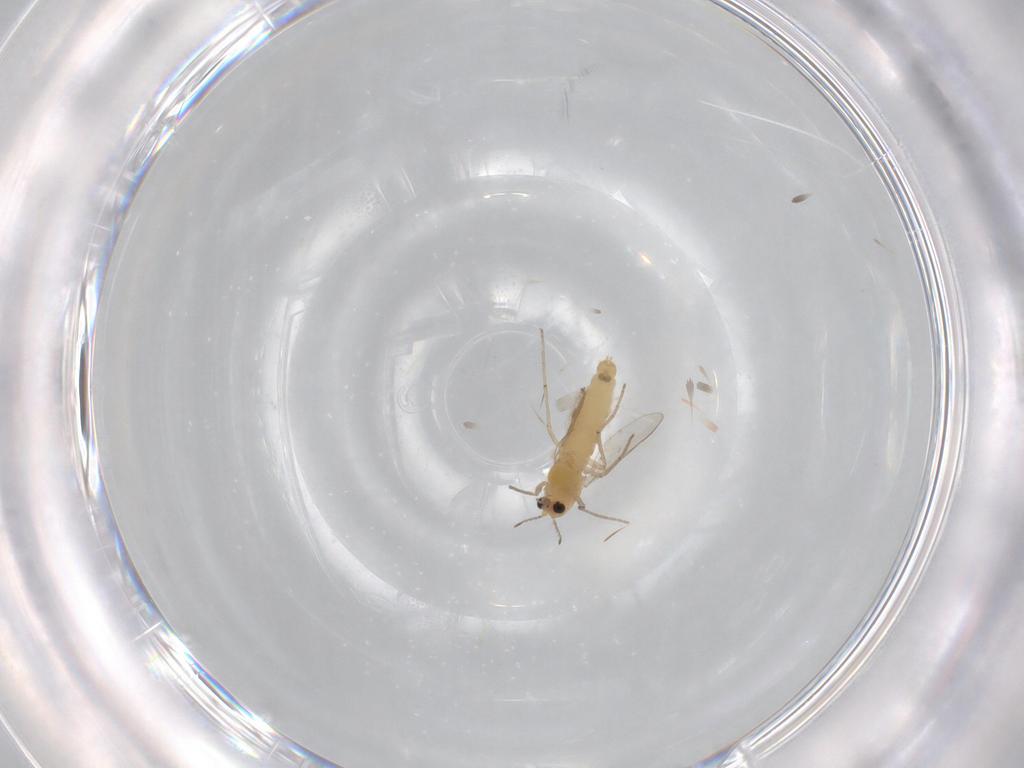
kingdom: Animalia
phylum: Arthropoda
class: Insecta
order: Diptera
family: Chironomidae
